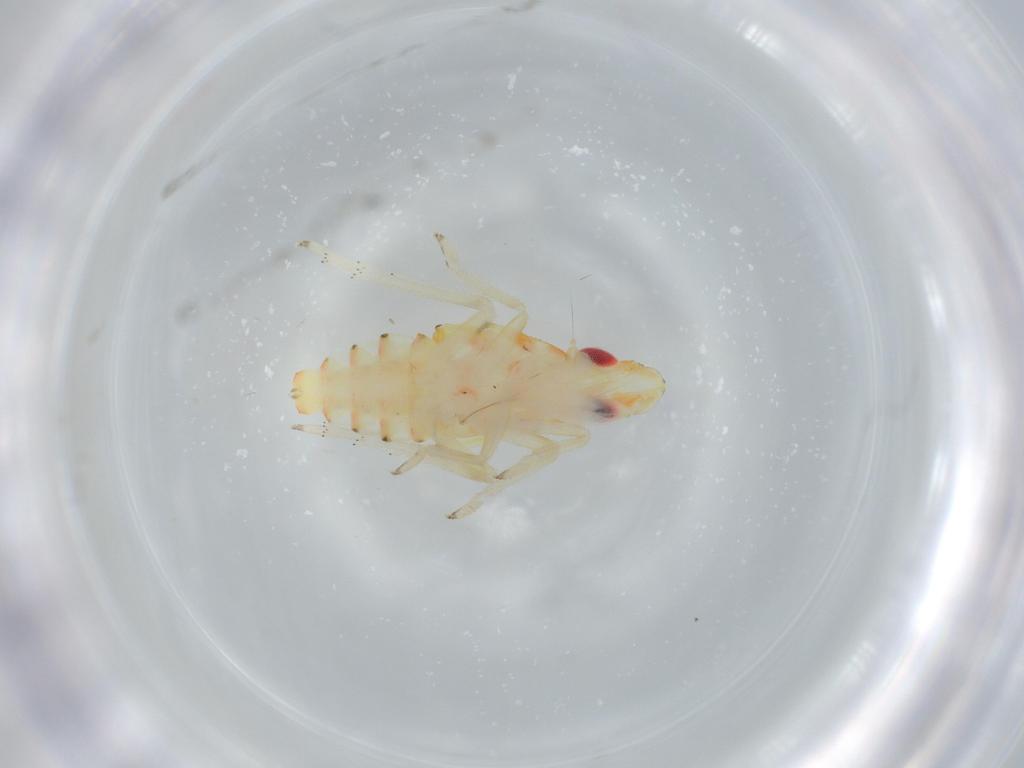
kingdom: Animalia
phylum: Arthropoda
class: Insecta
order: Hemiptera
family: Tropiduchidae
